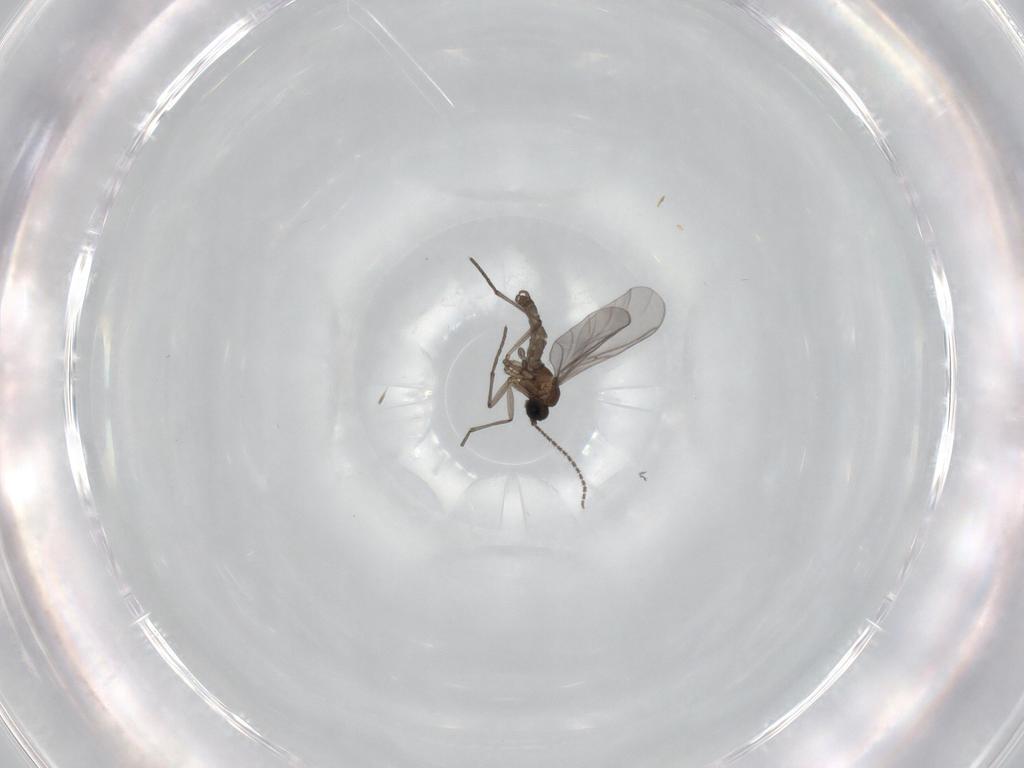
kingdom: Animalia
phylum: Arthropoda
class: Insecta
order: Diptera
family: Sciaridae
